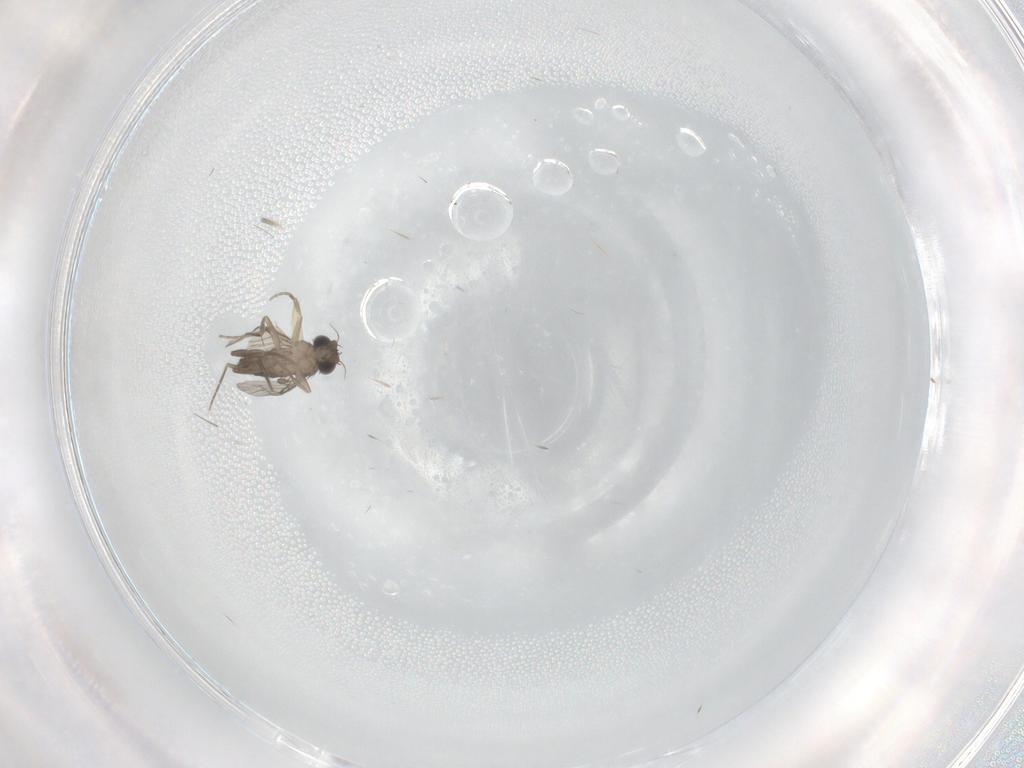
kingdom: Animalia
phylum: Arthropoda
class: Insecta
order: Diptera
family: Phoridae
